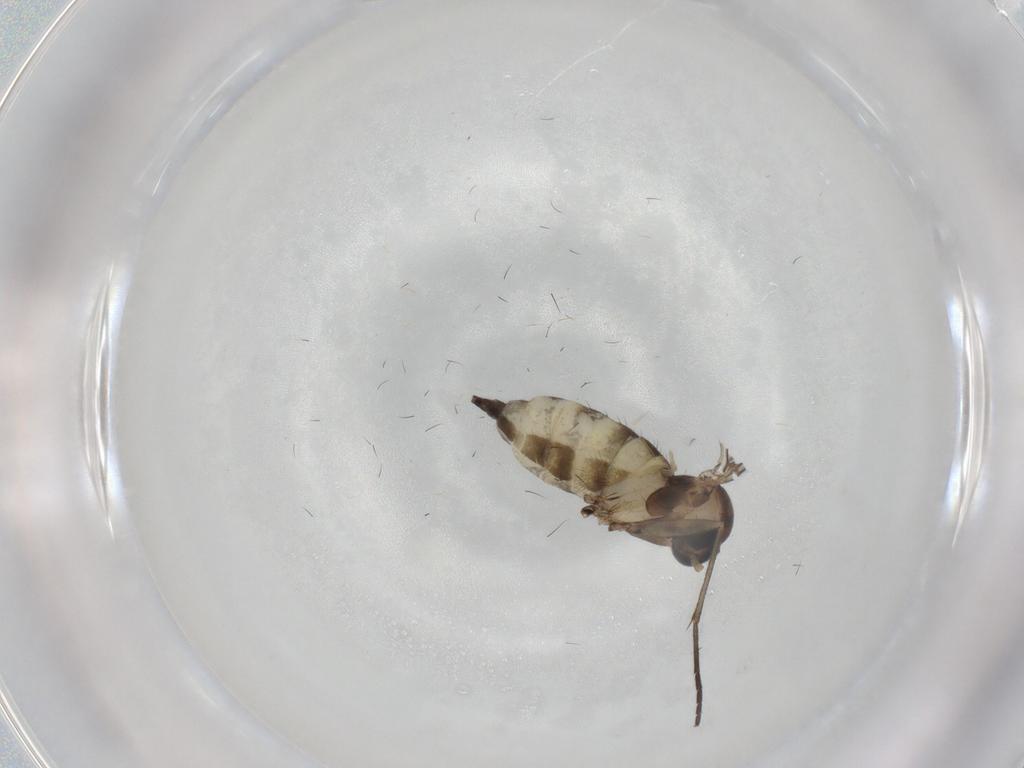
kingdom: Animalia
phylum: Arthropoda
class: Insecta
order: Diptera
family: Sciaridae
